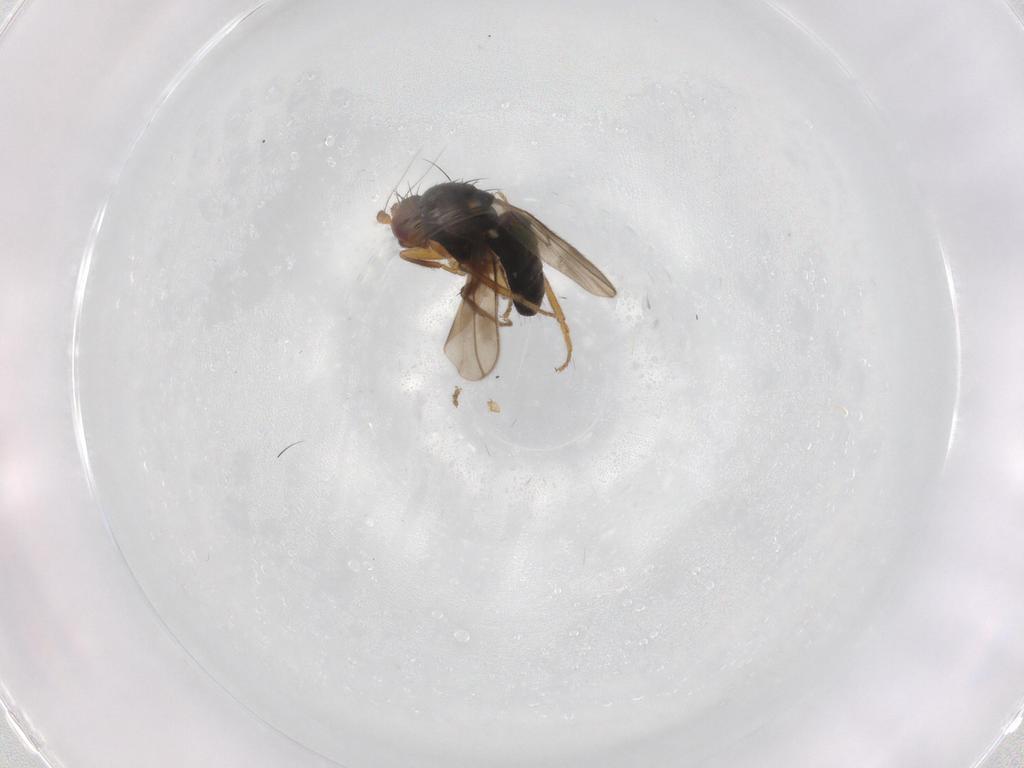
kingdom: Animalia
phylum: Arthropoda
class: Insecta
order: Diptera
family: Sphaeroceridae
